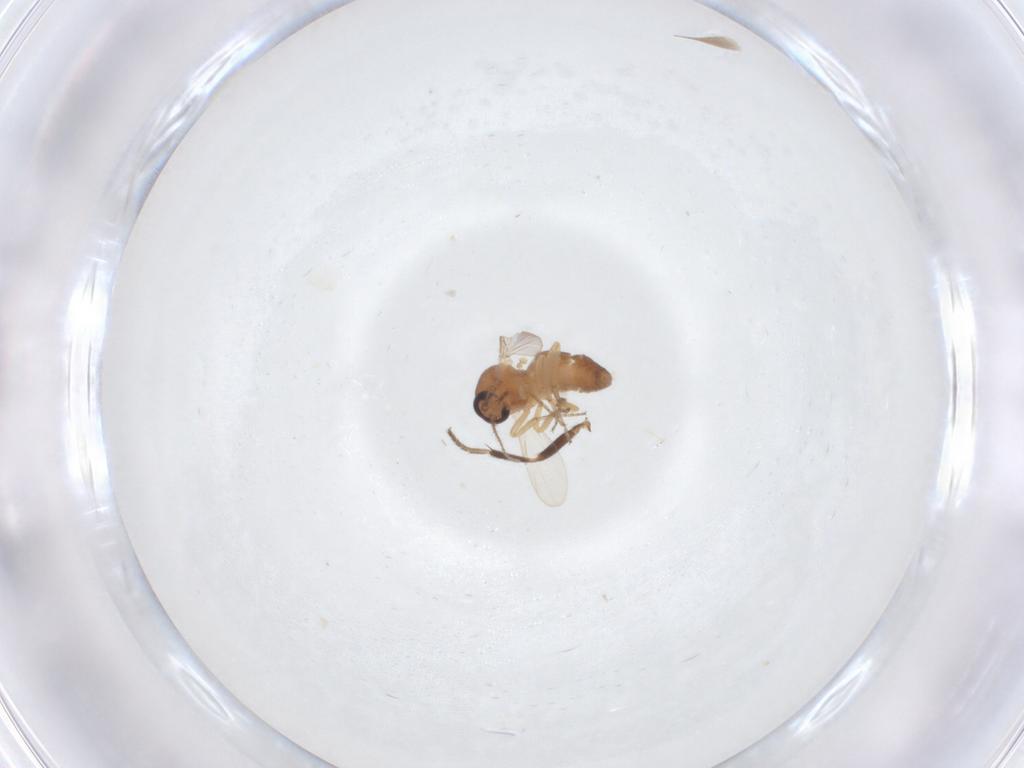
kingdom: Animalia
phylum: Arthropoda
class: Insecta
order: Diptera
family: Ceratopogonidae
